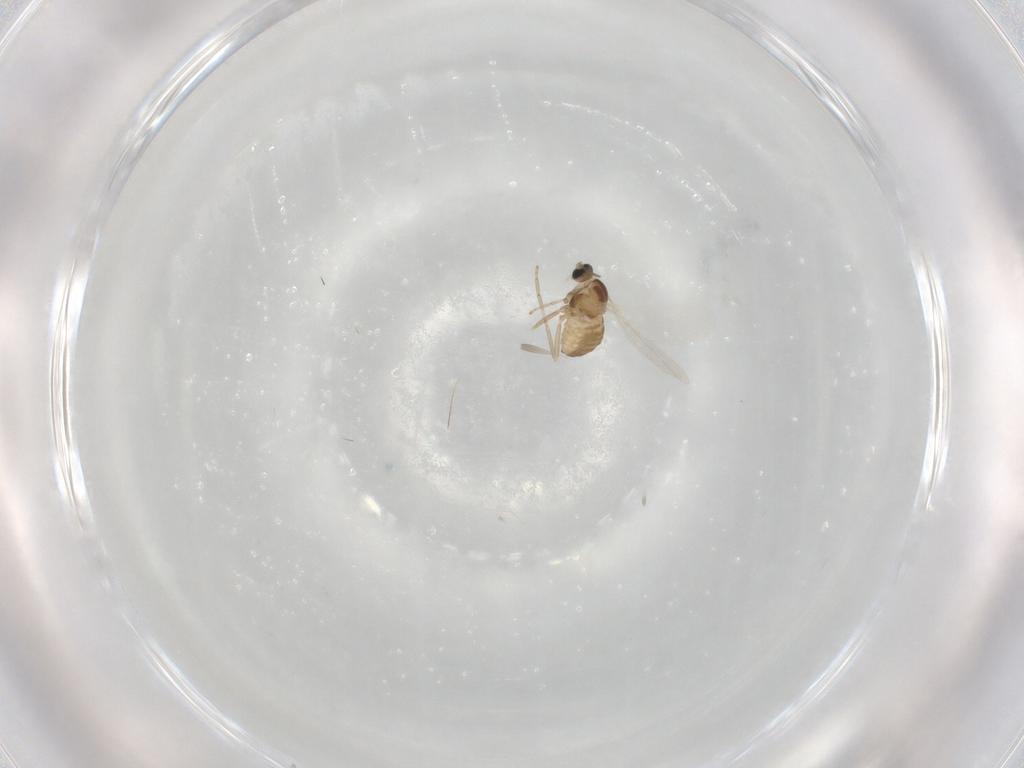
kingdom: Animalia
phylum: Arthropoda
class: Insecta
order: Diptera
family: Cecidomyiidae
